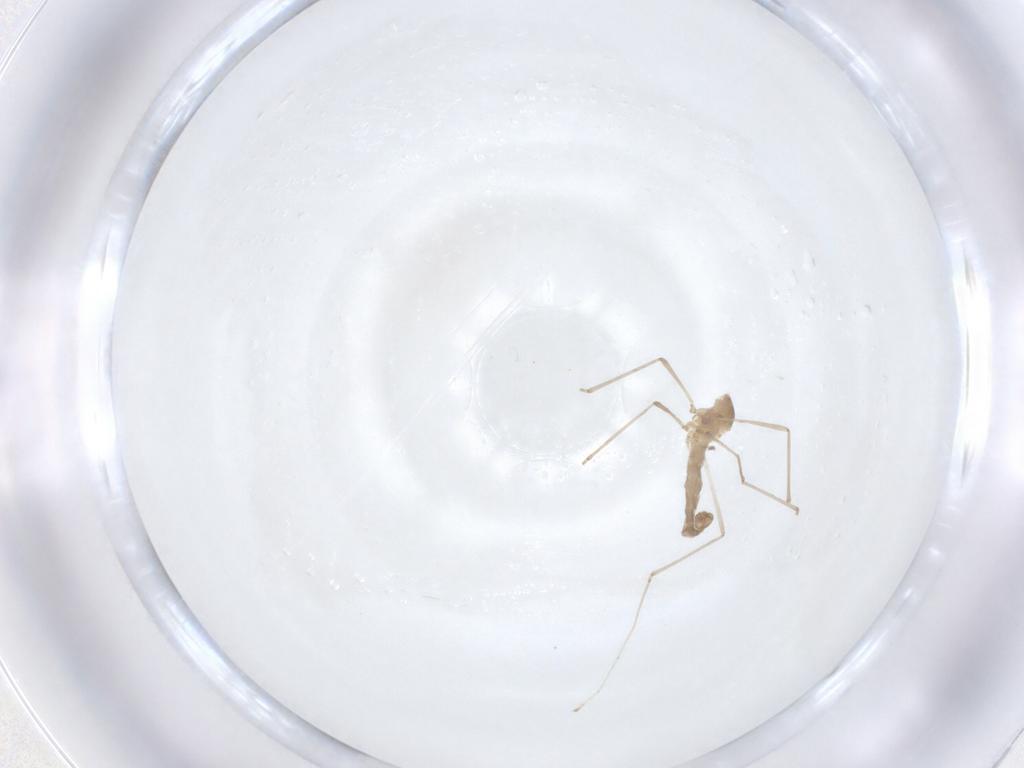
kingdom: Animalia
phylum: Arthropoda
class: Insecta
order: Diptera
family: Cecidomyiidae
